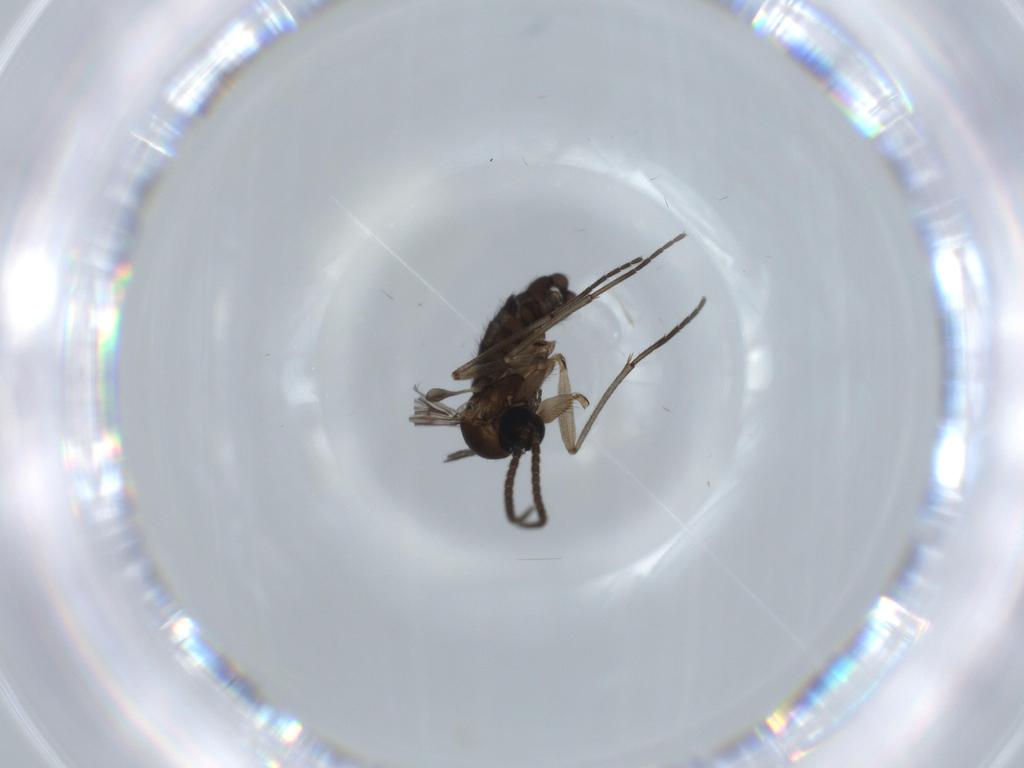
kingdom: Animalia
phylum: Arthropoda
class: Insecta
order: Diptera
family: Sciaridae
